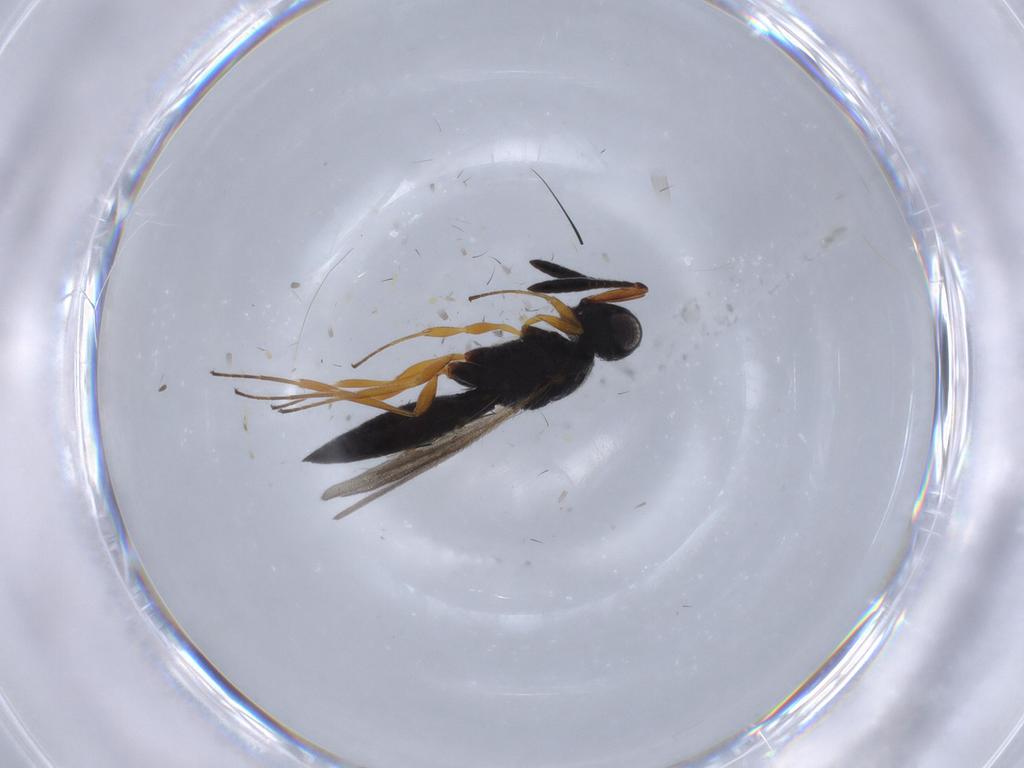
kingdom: Animalia
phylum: Arthropoda
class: Insecta
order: Hymenoptera
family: Scelionidae
